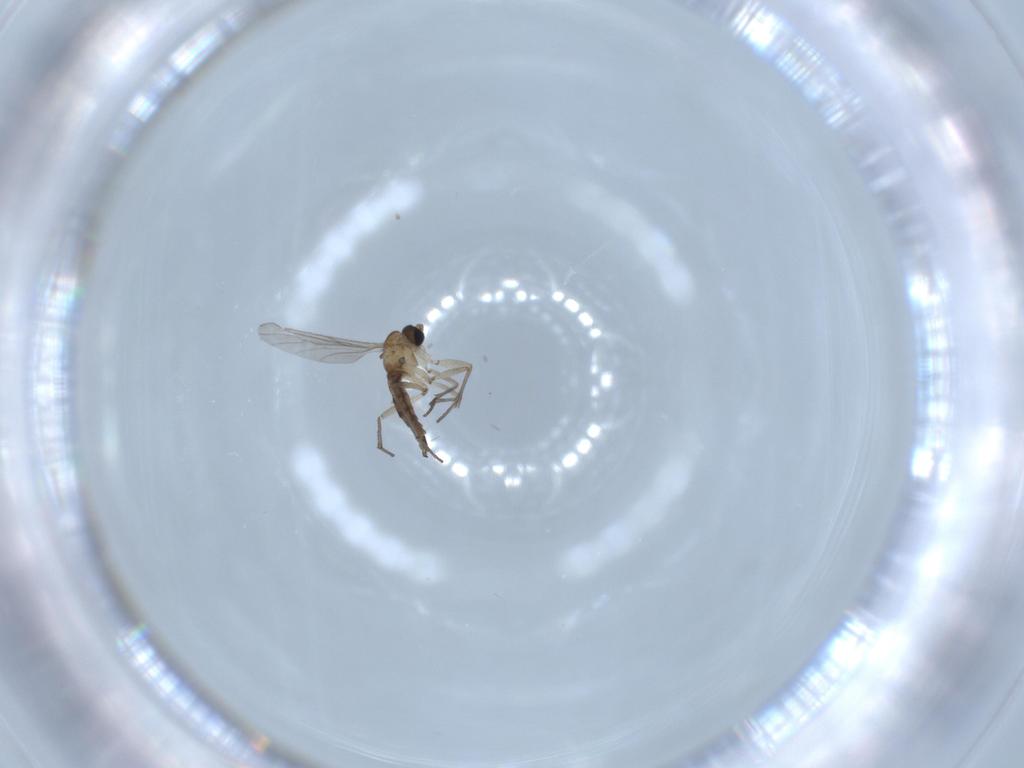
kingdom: Animalia
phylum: Arthropoda
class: Insecta
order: Diptera
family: Sciaridae
